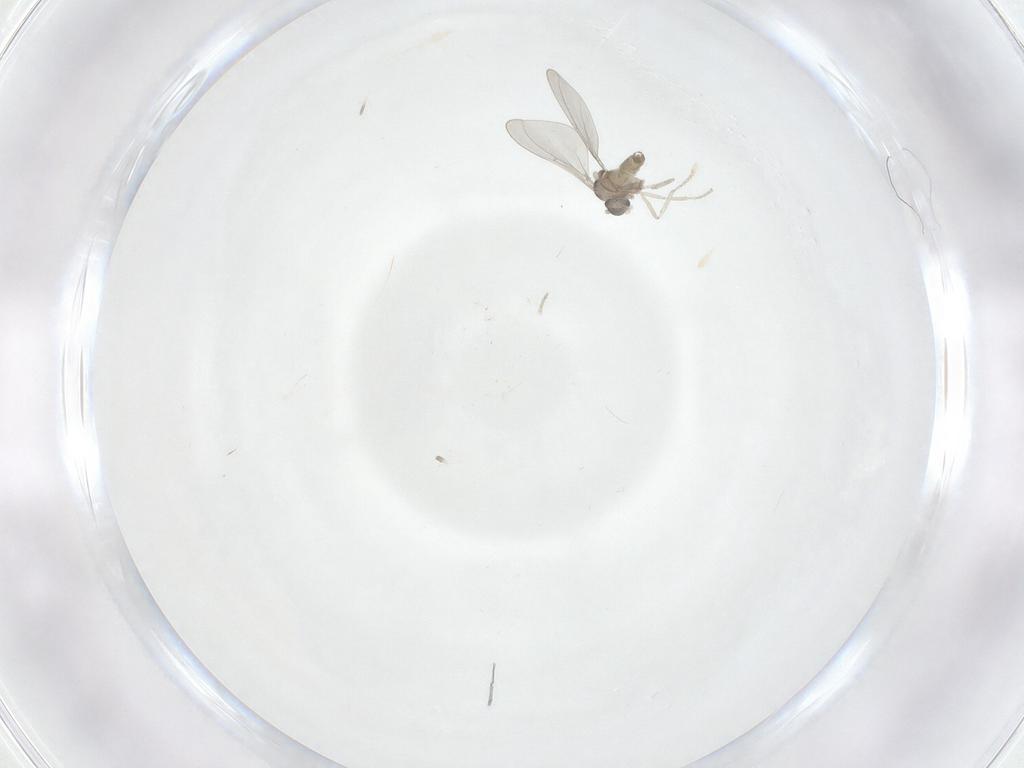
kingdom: Animalia
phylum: Arthropoda
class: Insecta
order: Diptera
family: Cecidomyiidae
